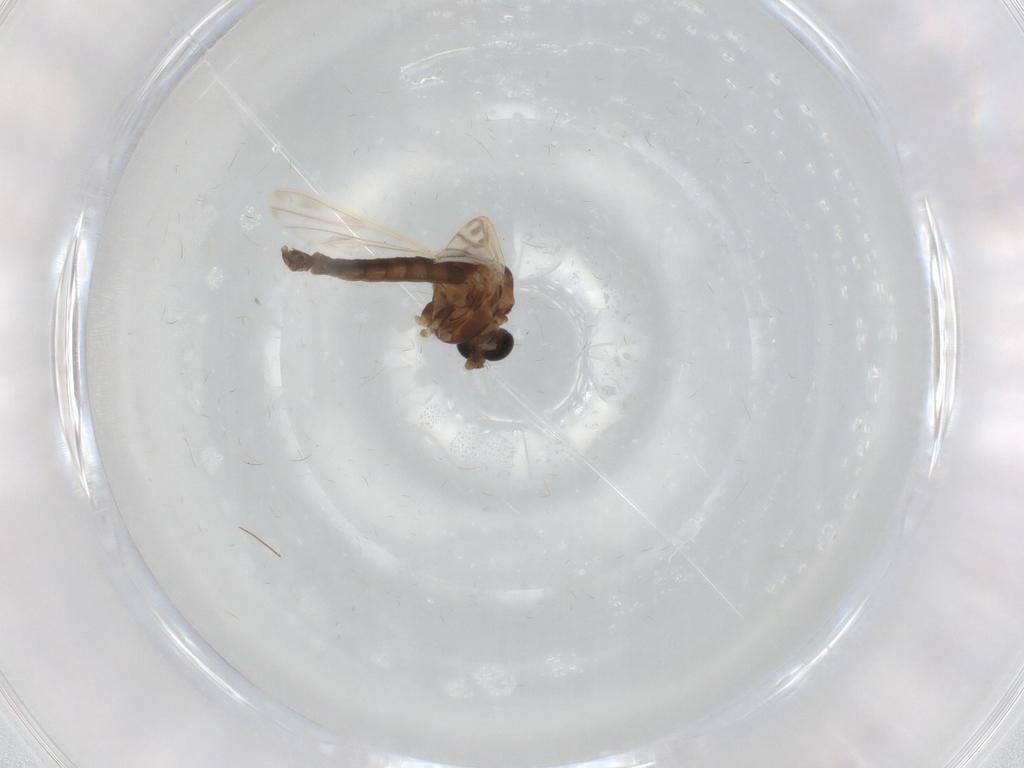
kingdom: Animalia
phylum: Arthropoda
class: Insecta
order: Diptera
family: Chironomidae
